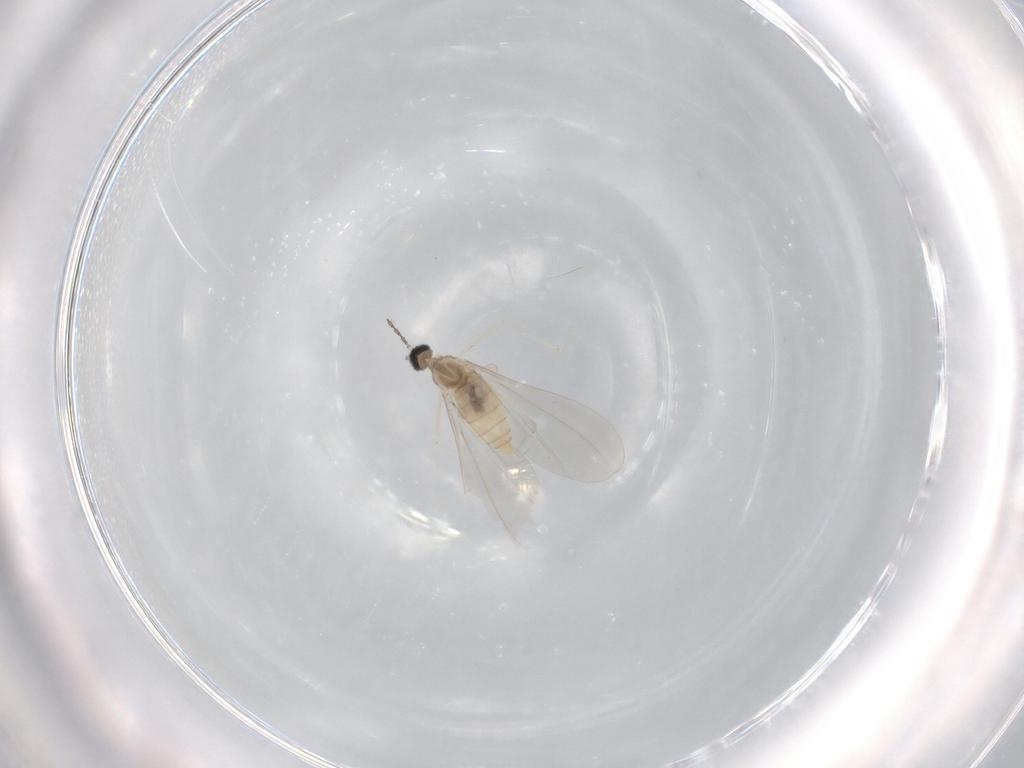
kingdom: Animalia
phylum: Arthropoda
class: Insecta
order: Diptera
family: Cecidomyiidae
